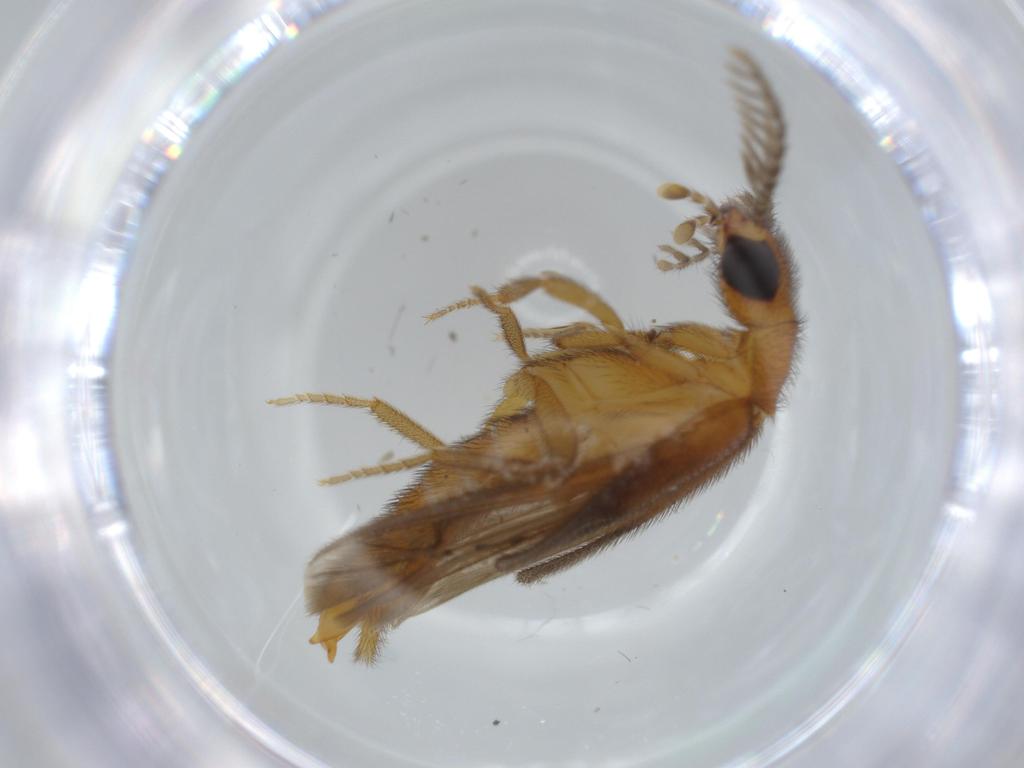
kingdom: Animalia
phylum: Arthropoda
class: Insecta
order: Coleoptera
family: Phengodidae
